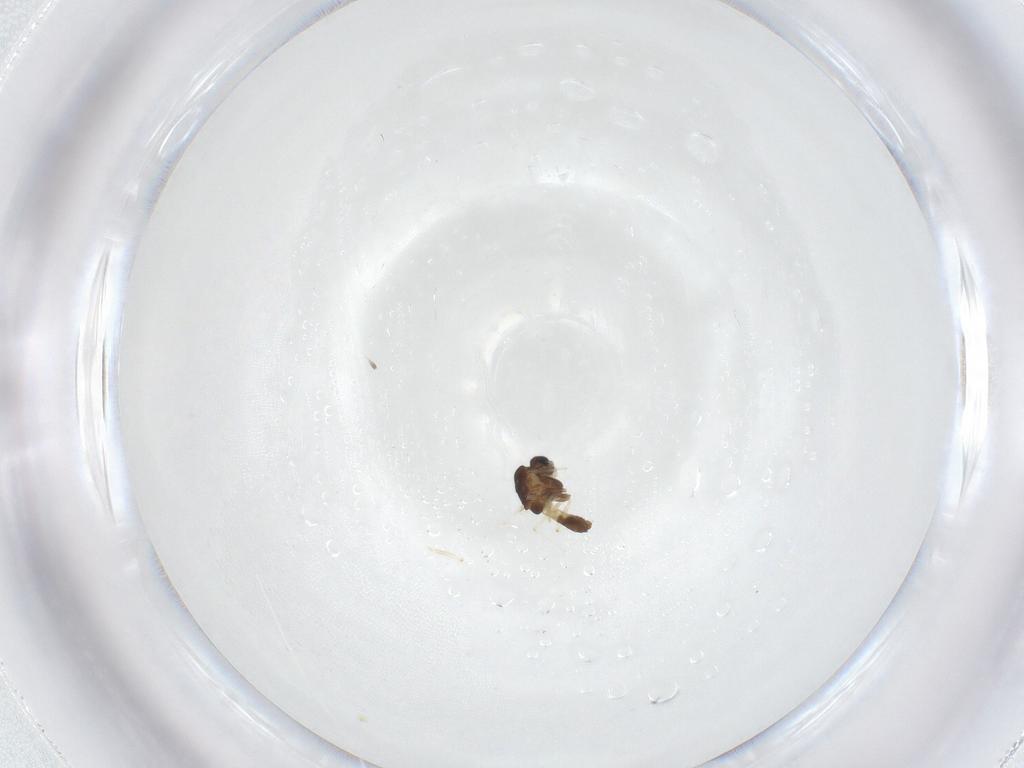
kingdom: Animalia
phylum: Arthropoda
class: Insecta
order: Diptera
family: Chironomidae
